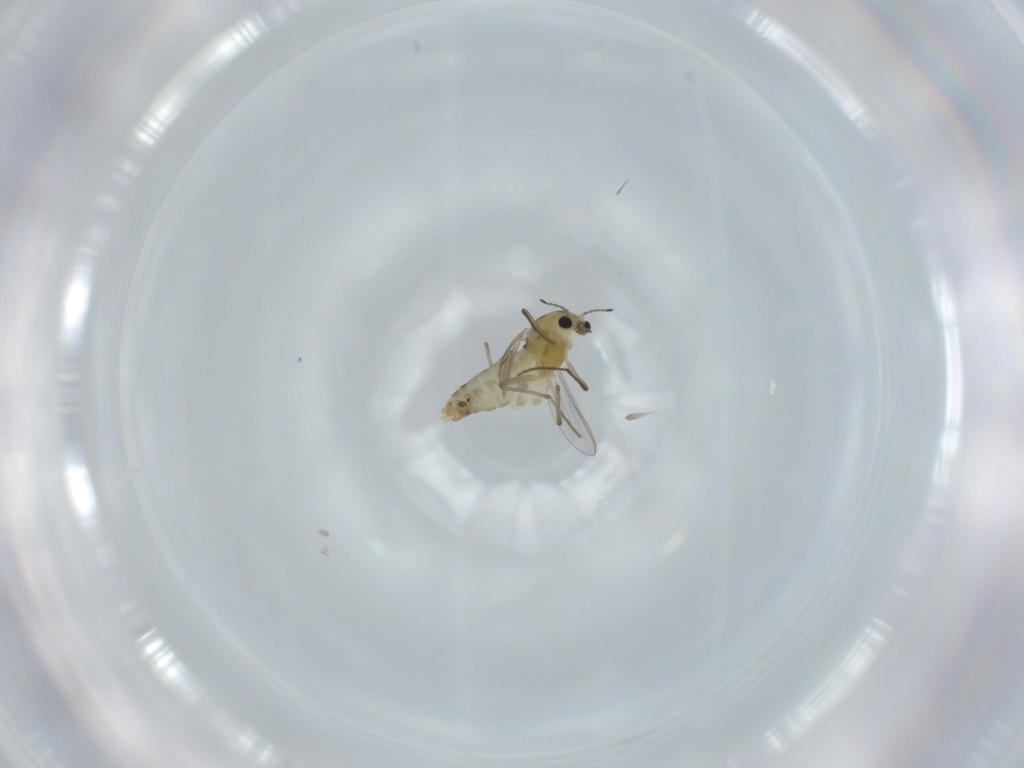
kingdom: Animalia
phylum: Arthropoda
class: Insecta
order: Diptera
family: Chironomidae
